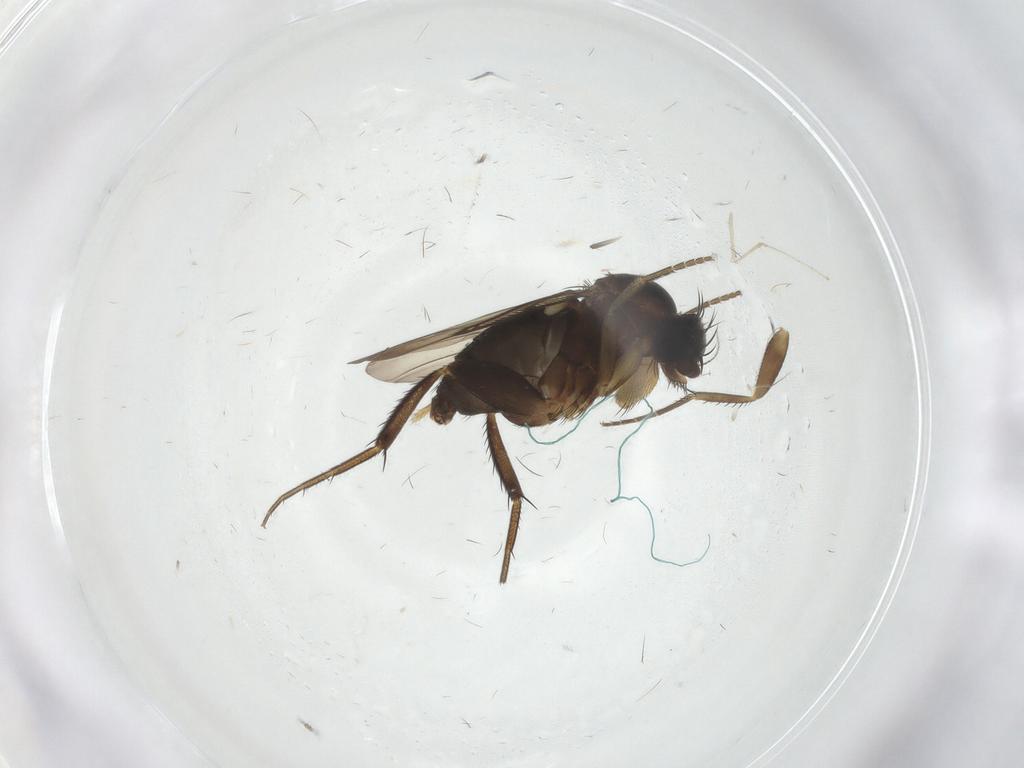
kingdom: Animalia
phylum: Arthropoda
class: Insecta
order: Diptera
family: Phoridae
